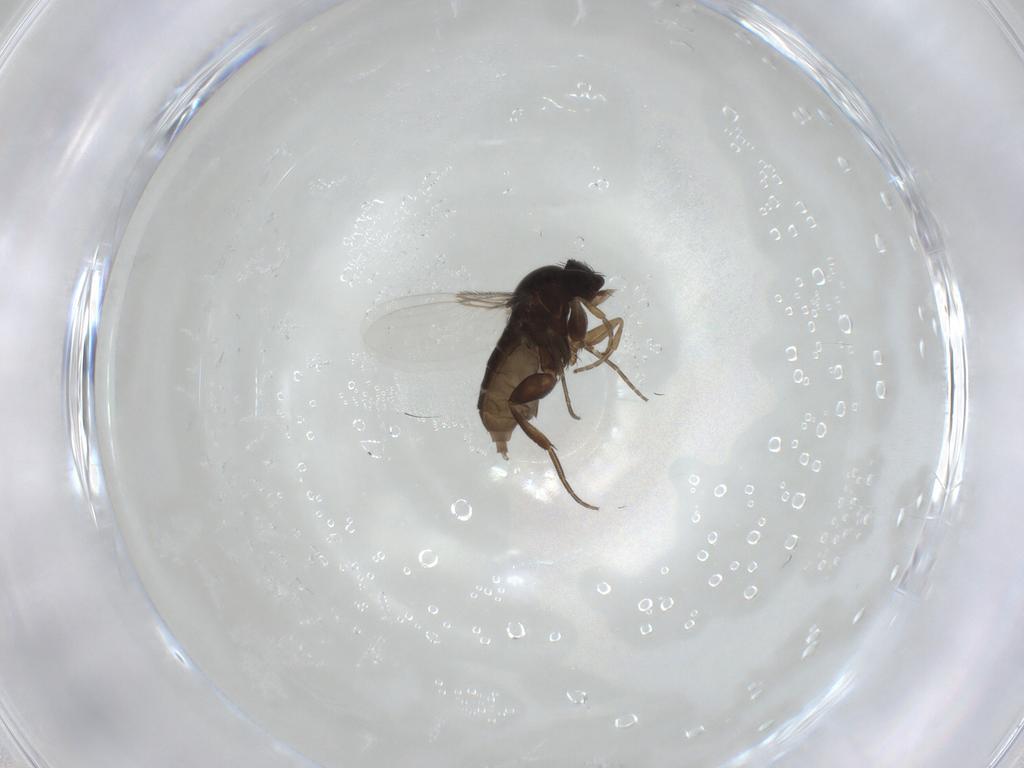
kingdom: Animalia
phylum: Arthropoda
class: Insecta
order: Diptera
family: Phoridae
